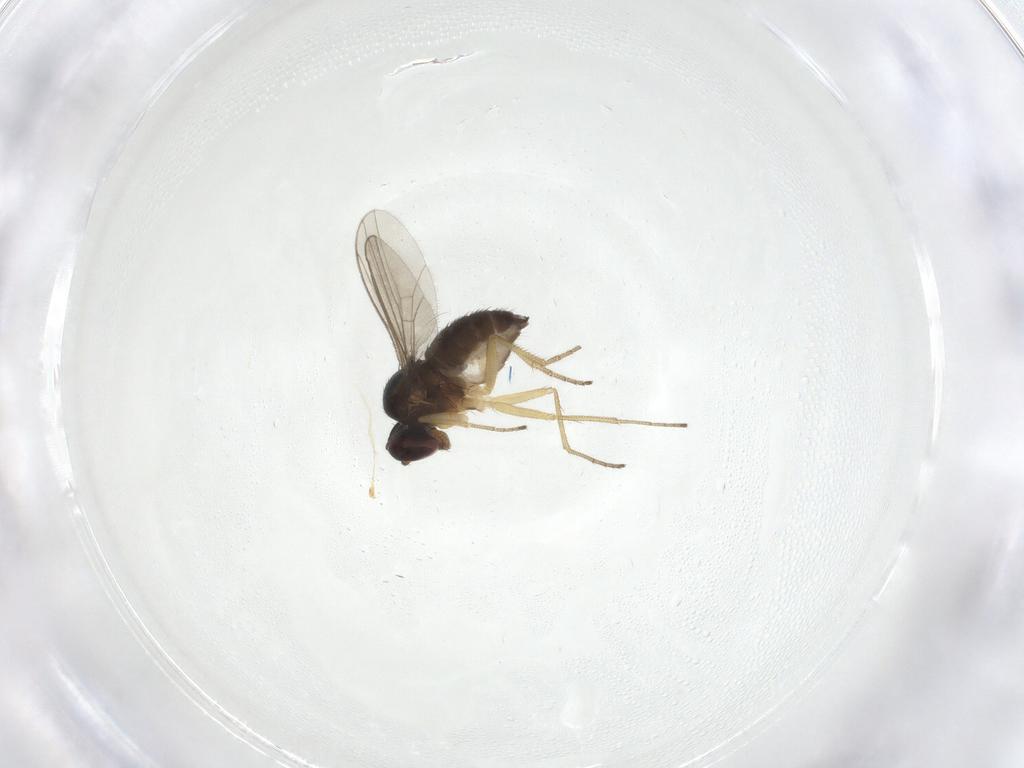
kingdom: Animalia
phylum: Arthropoda
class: Insecta
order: Diptera
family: Dolichopodidae
